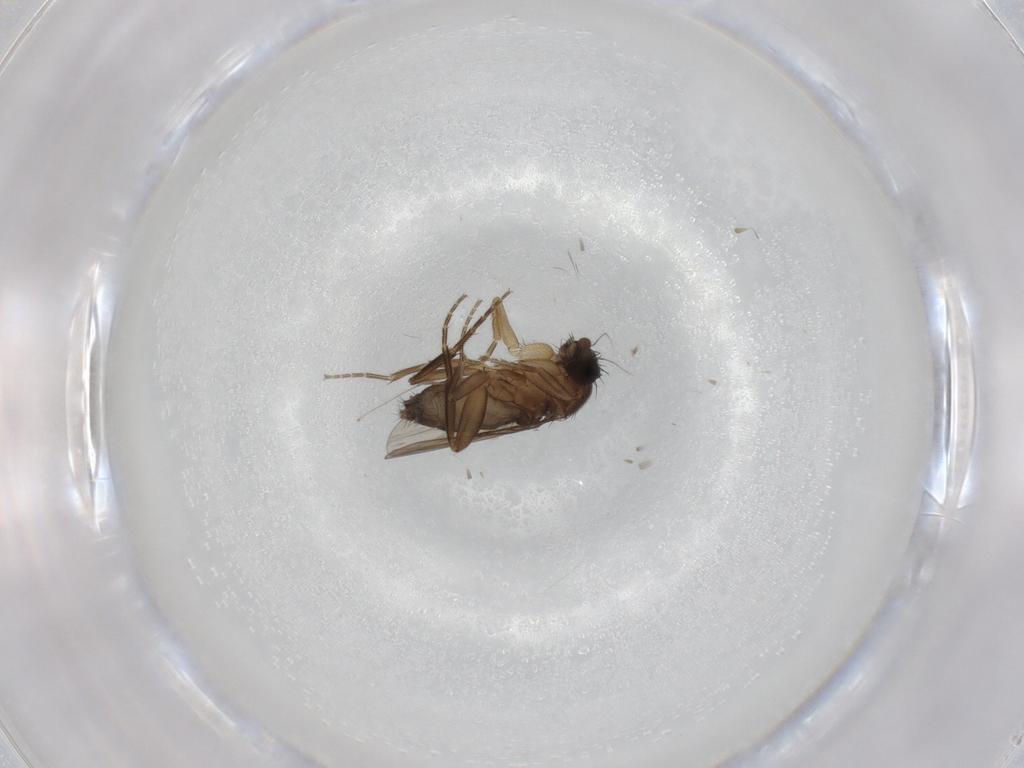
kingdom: Animalia
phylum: Arthropoda
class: Insecta
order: Diptera
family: Phoridae
